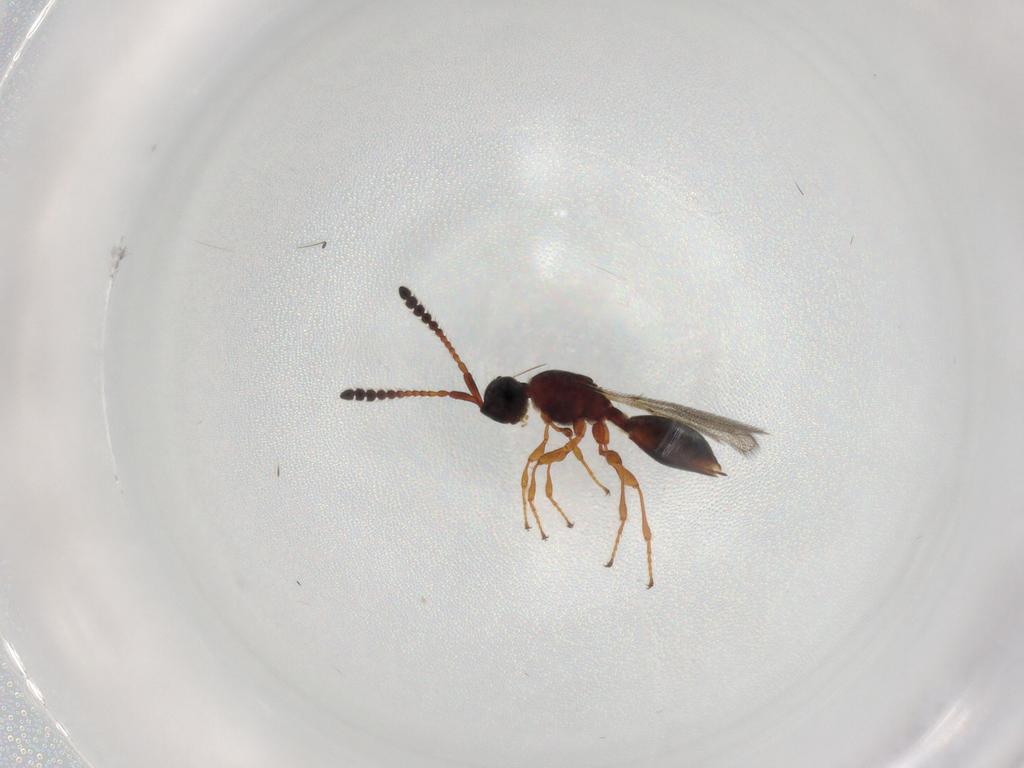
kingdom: Animalia
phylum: Arthropoda
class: Insecta
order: Hymenoptera
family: Diapriidae
